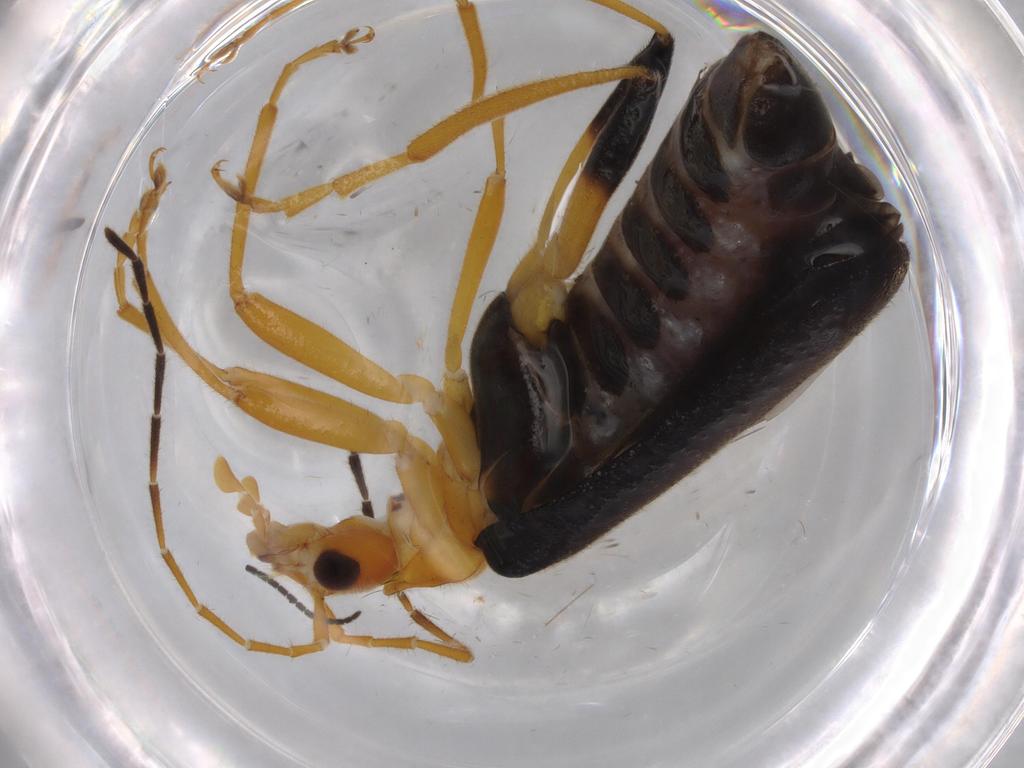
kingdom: Animalia
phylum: Arthropoda
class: Insecta
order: Coleoptera
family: Cantharidae
